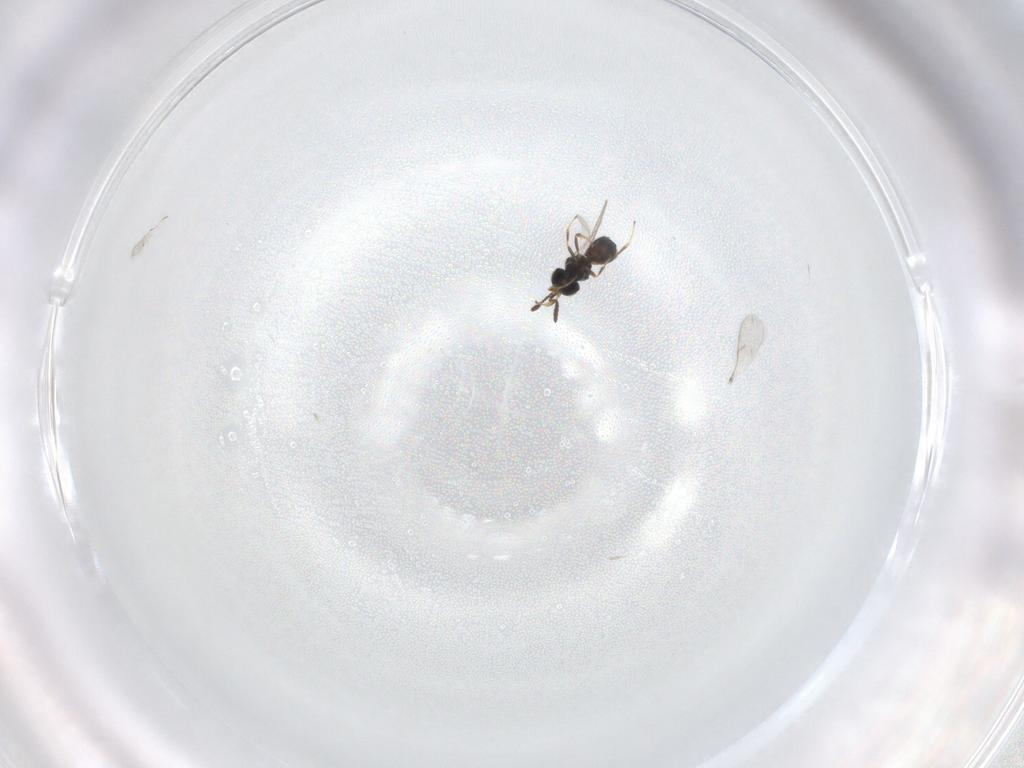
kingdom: Animalia
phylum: Arthropoda
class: Insecta
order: Hymenoptera
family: Scelionidae
